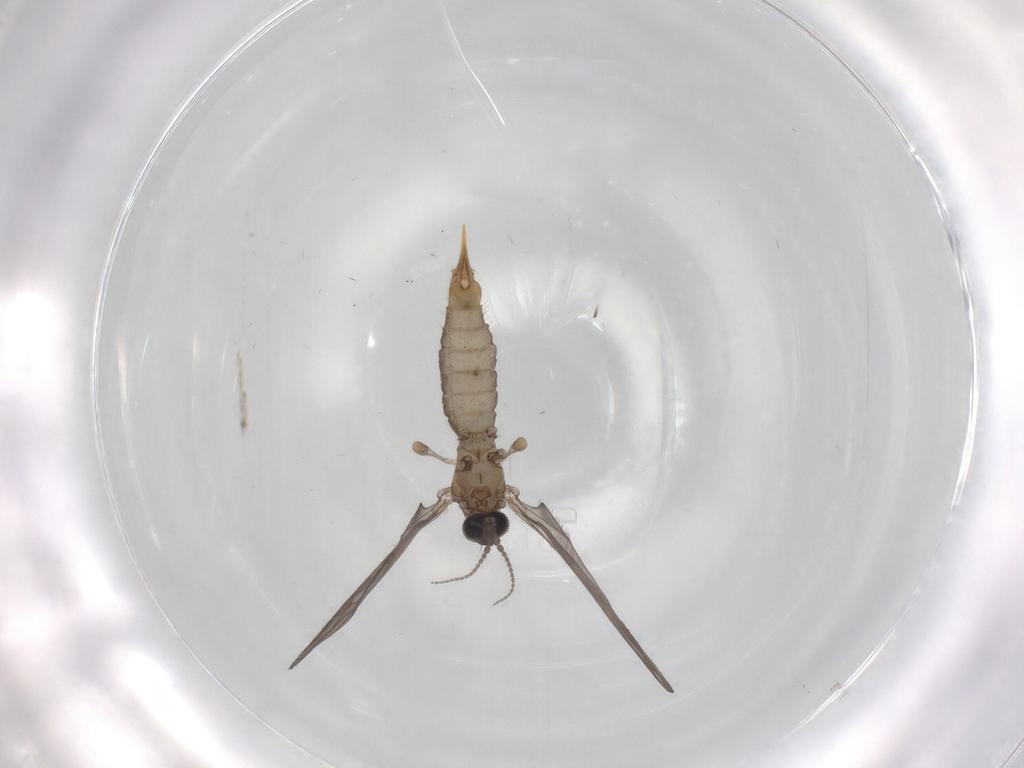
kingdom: Animalia
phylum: Arthropoda
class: Insecta
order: Diptera
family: Limoniidae
